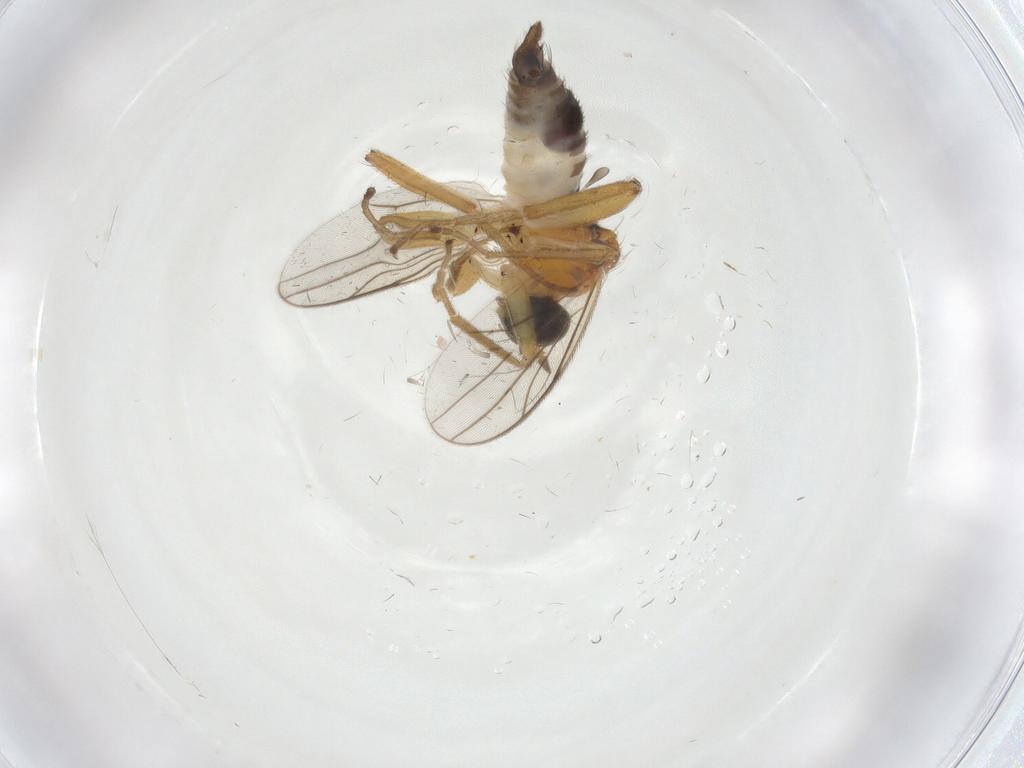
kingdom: Animalia
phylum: Arthropoda
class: Insecta
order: Diptera
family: Hybotidae
